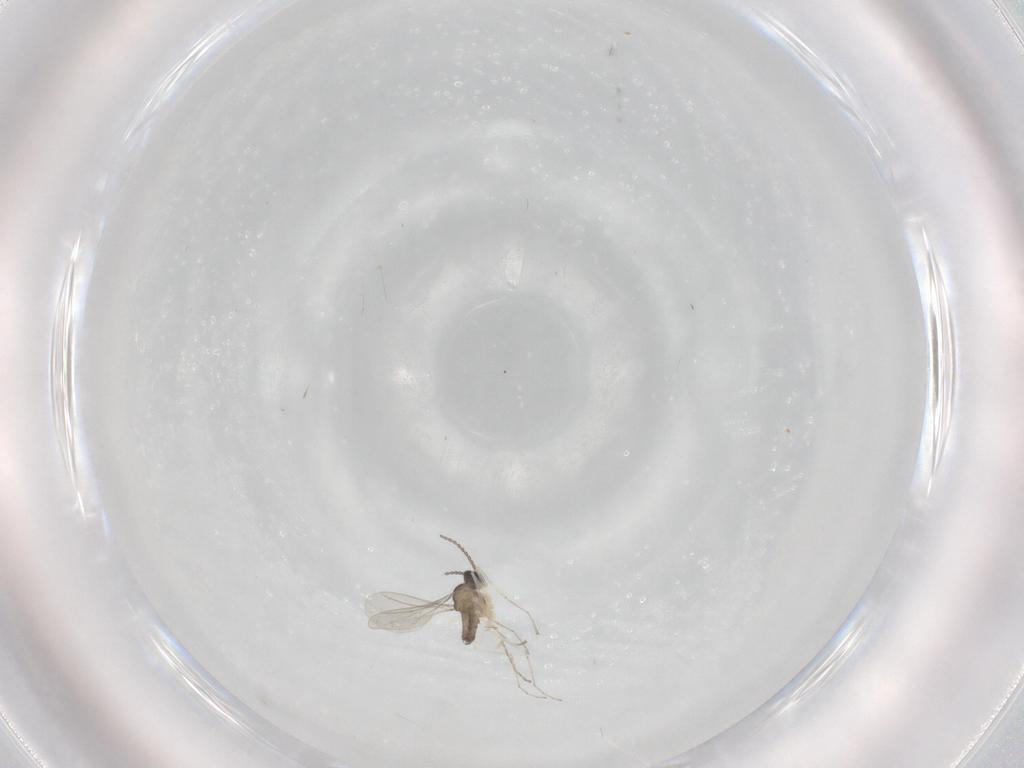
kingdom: Animalia
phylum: Arthropoda
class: Insecta
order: Diptera
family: Cecidomyiidae
